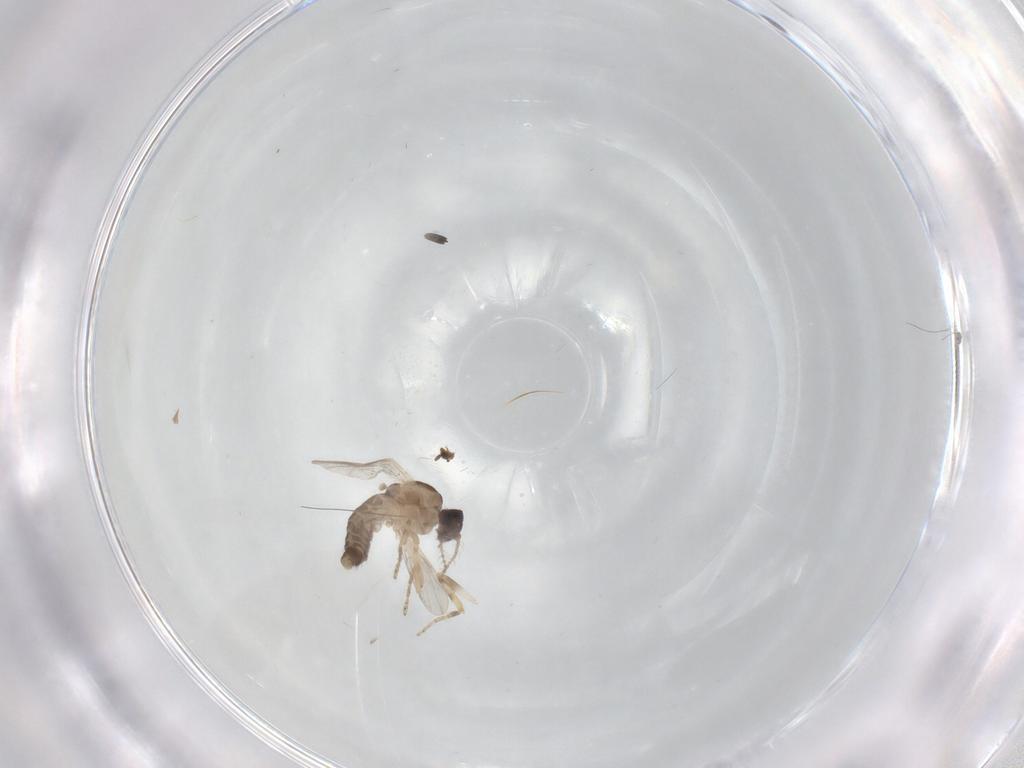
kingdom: Animalia
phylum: Arthropoda
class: Insecta
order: Diptera
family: Ceratopogonidae
